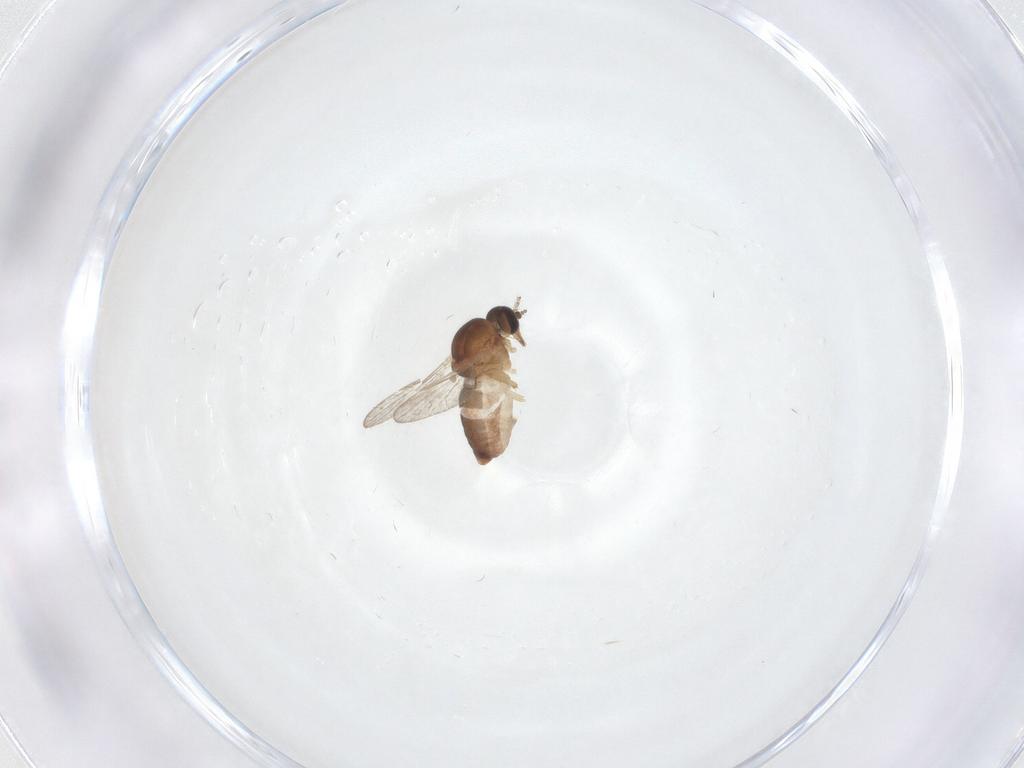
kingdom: Animalia
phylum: Arthropoda
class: Insecta
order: Diptera
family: Ceratopogonidae
